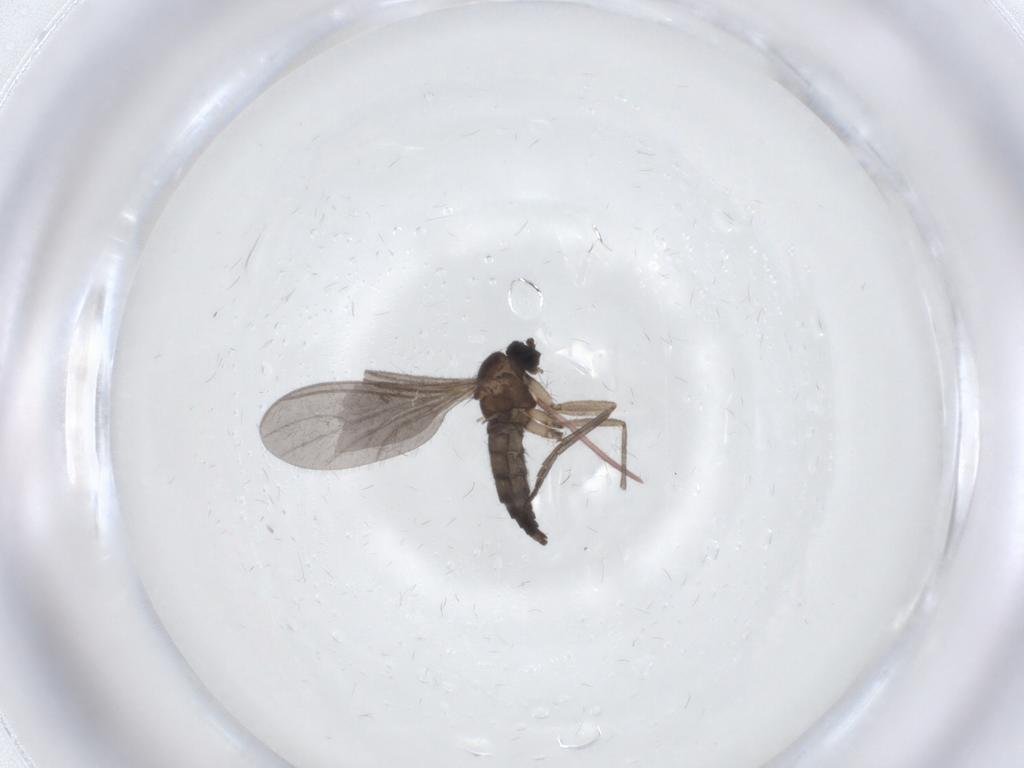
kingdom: Animalia
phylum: Arthropoda
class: Insecta
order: Diptera
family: Sciaridae
